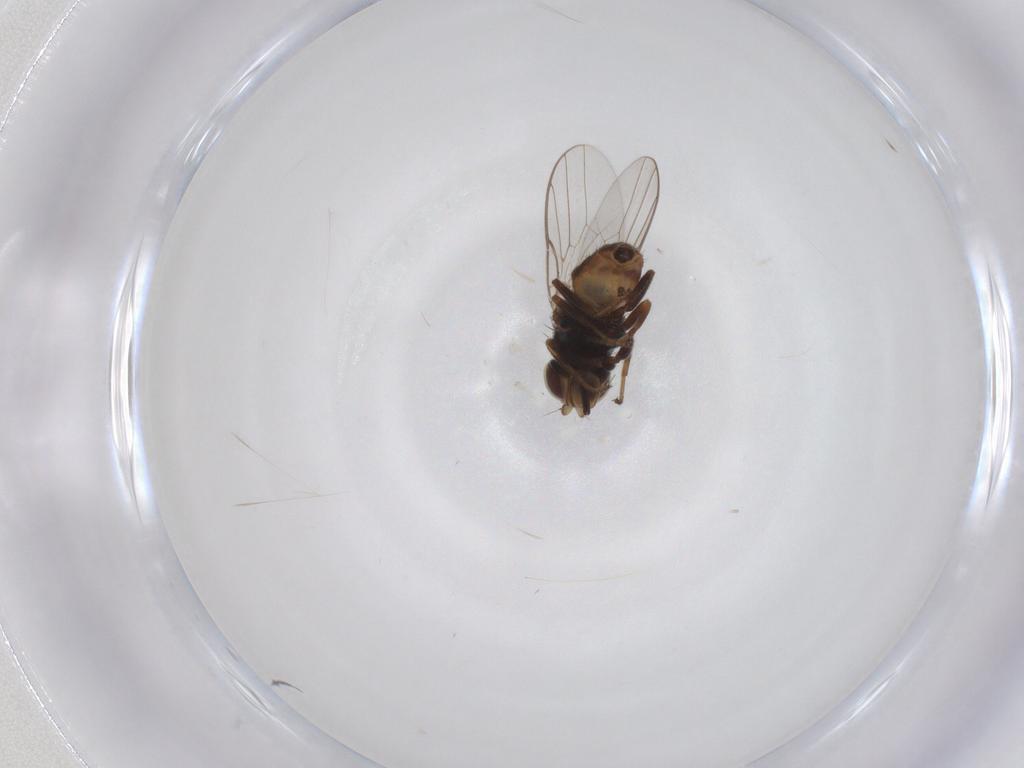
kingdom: Animalia
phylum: Arthropoda
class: Insecta
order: Diptera
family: Chloropidae
